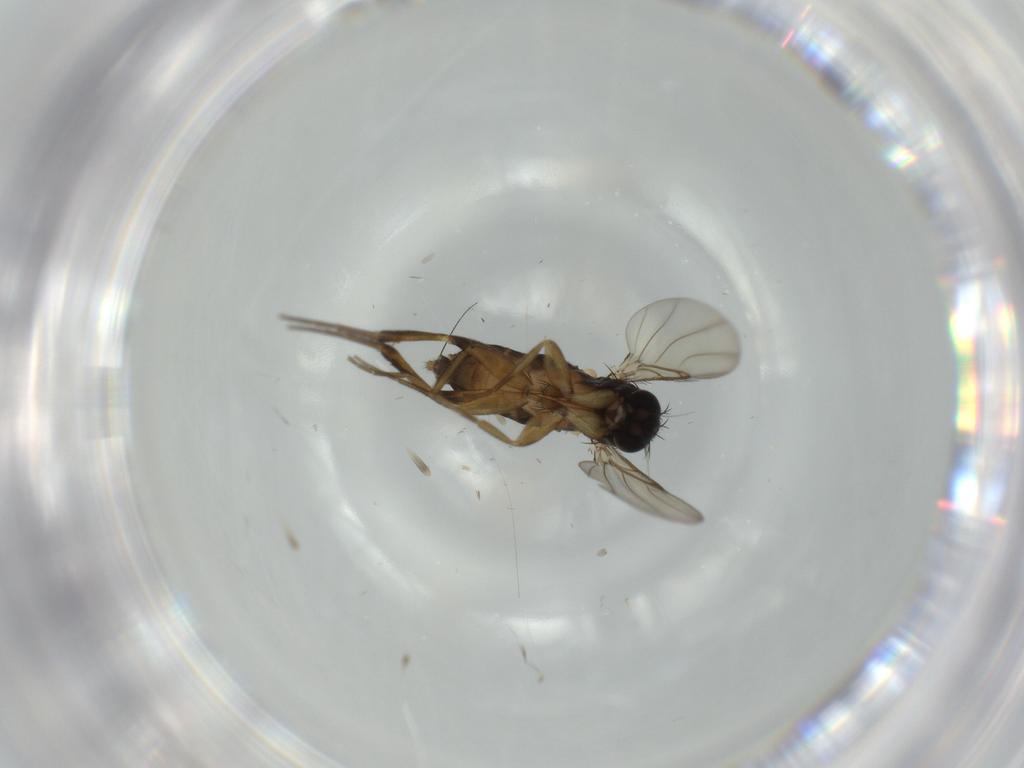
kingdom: Animalia
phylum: Arthropoda
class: Insecta
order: Diptera
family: Phoridae
